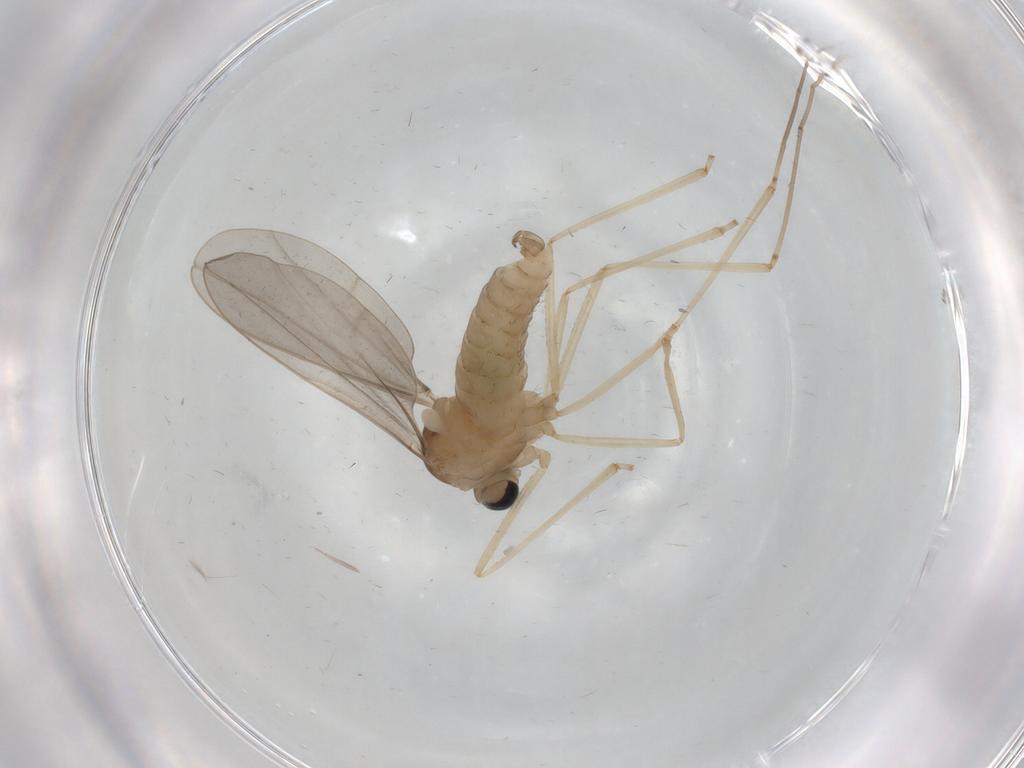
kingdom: Animalia
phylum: Arthropoda
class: Insecta
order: Diptera
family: Cecidomyiidae
